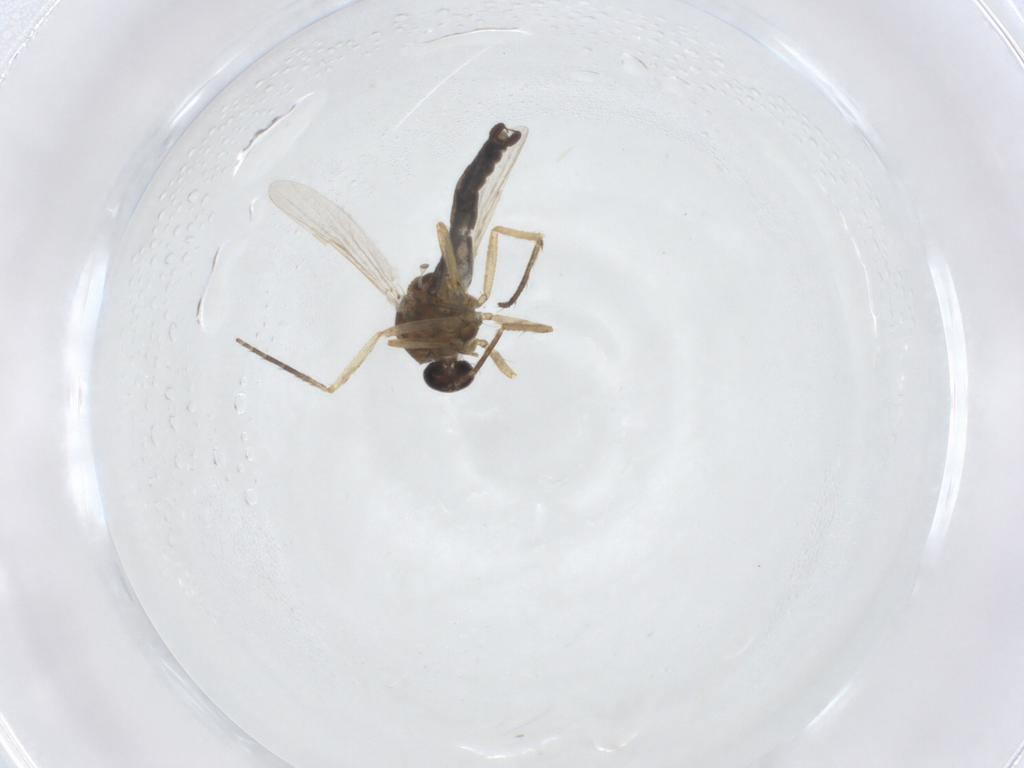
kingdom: Animalia
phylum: Arthropoda
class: Insecta
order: Diptera
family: Ceratopogonidae
